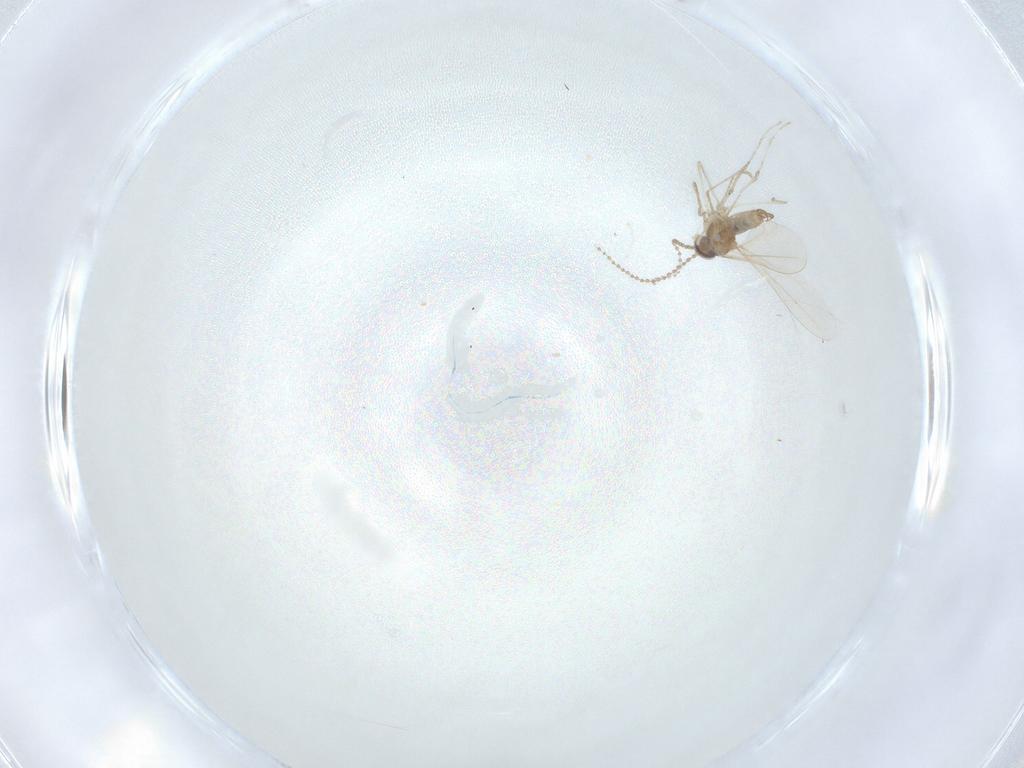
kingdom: Animalia
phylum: Arthropoda
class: Insecta
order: Diptera
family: Cecidomyiidae
